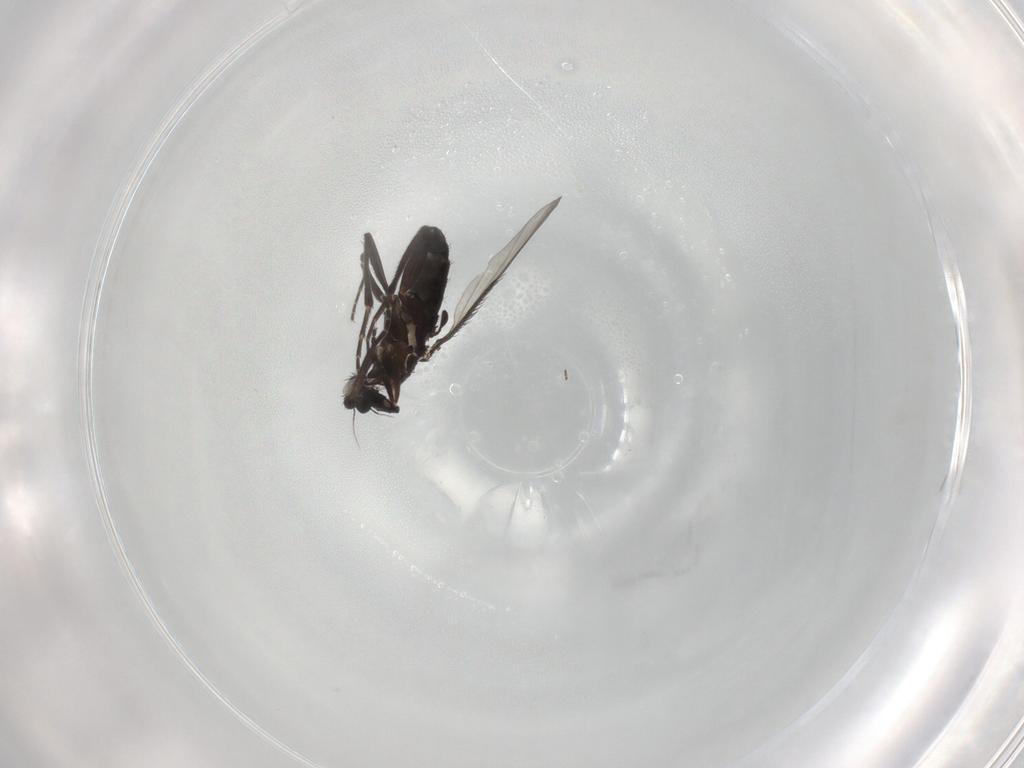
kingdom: Animalia
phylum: Arthropoda
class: Insecta
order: Diptera
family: Phoridae
